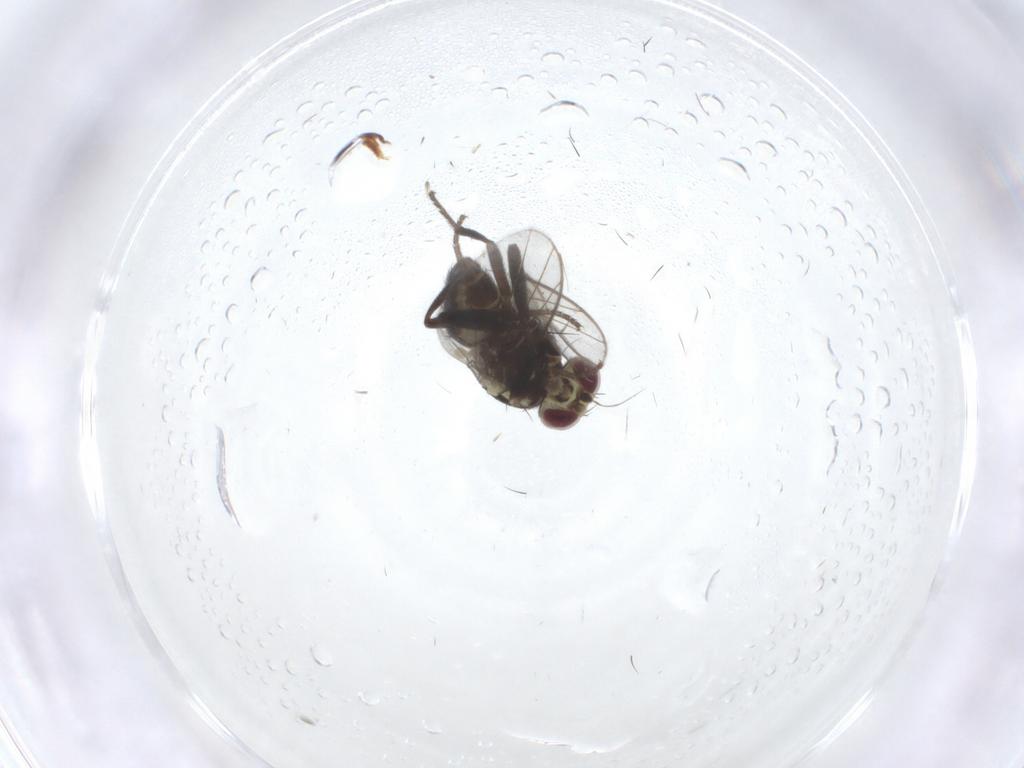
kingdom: Animalia
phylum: Arthropoda
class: Insecta
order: Diptera
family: Agromyzidae
